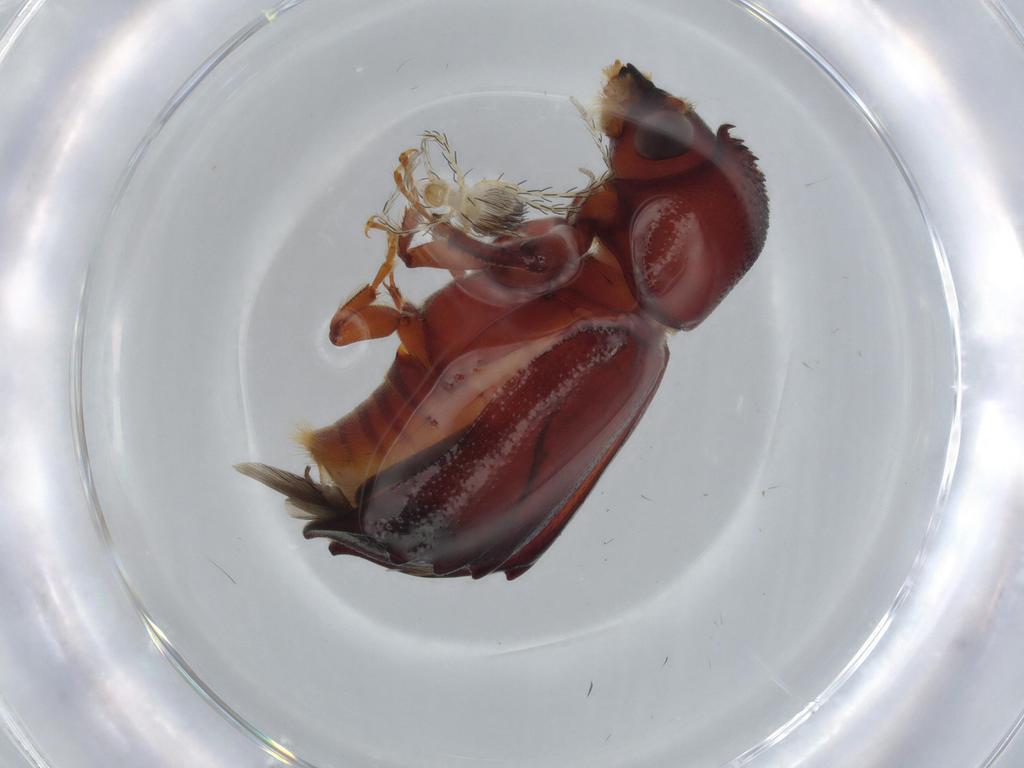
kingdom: Animalia
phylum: Arthropoda
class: Insecta
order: Coleoptera
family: Bostrichidae
